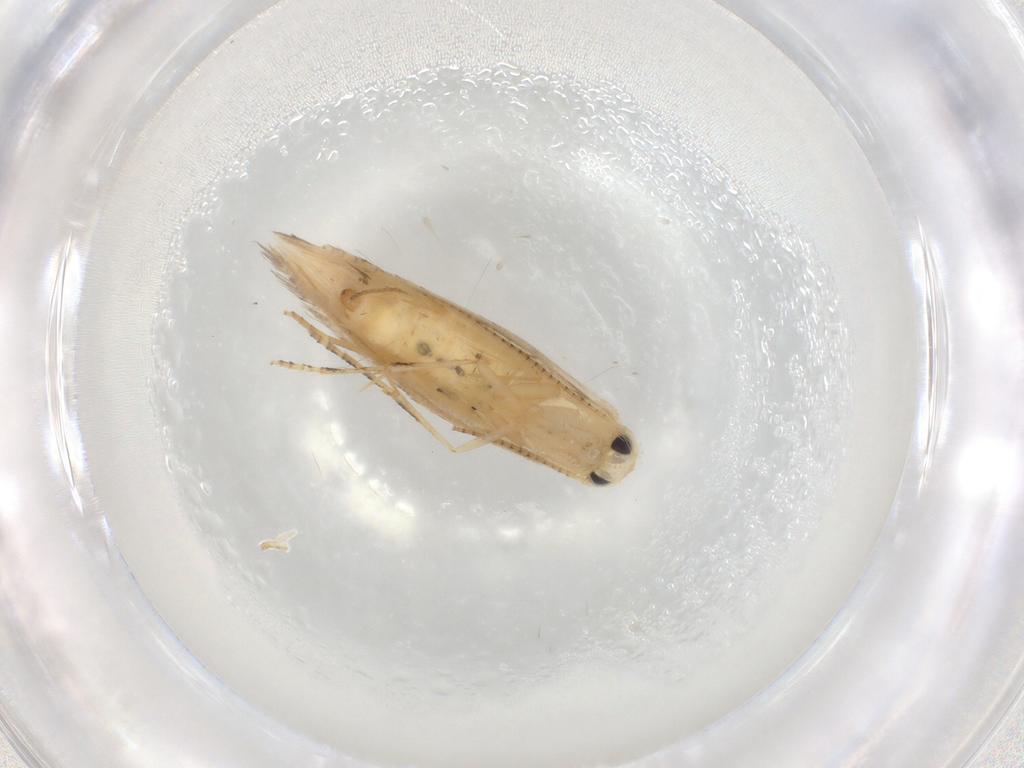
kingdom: Animalia
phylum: Arthropoda
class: Insecta
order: Lepidoptera
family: Bucculatricidae
